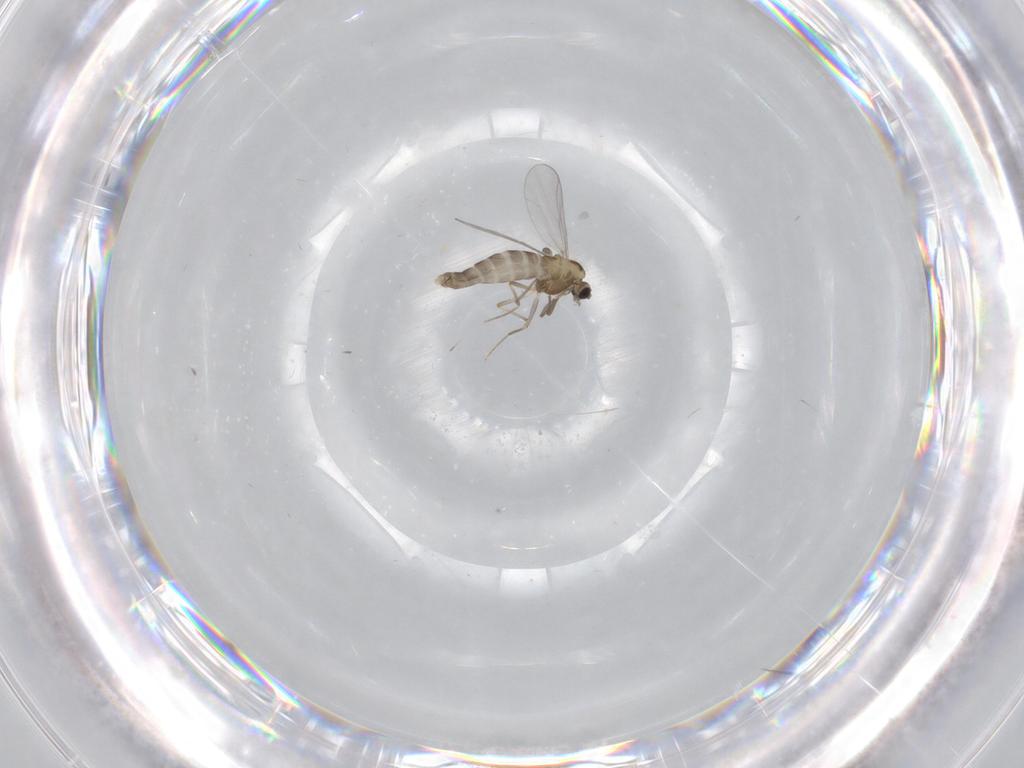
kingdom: Animalia
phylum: Arthropoda
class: Insecta
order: Diptera
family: Cecidomyiidae
